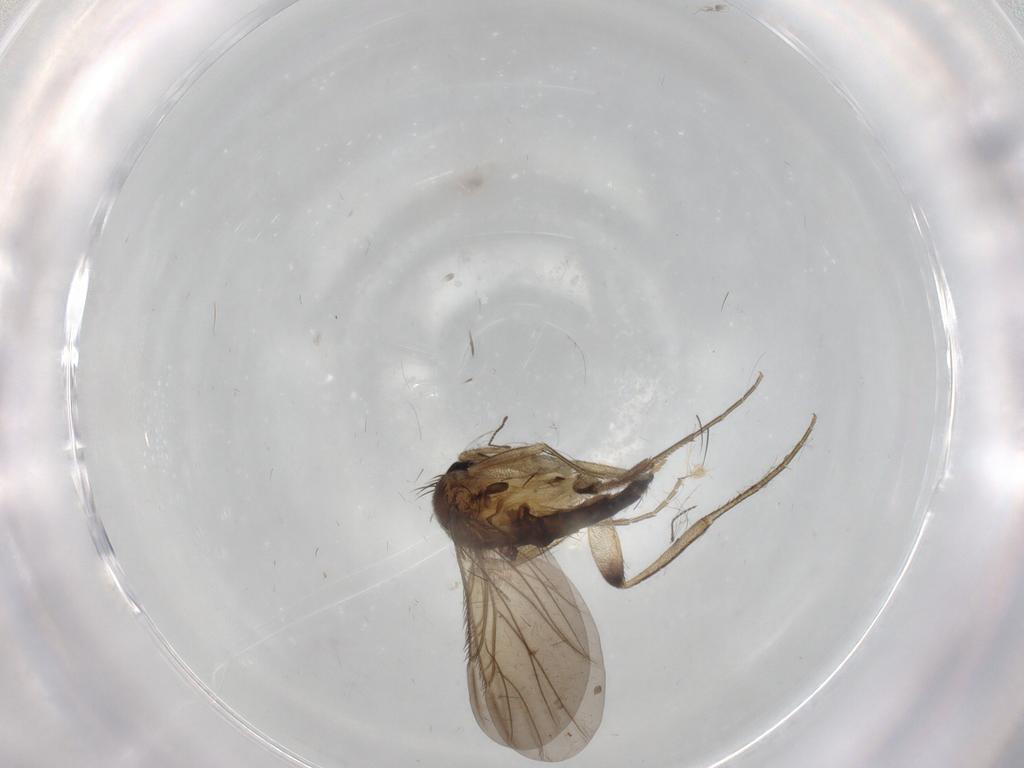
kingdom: Animalia
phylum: Arthropoda
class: Insecta
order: Diptera
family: Phoridae
